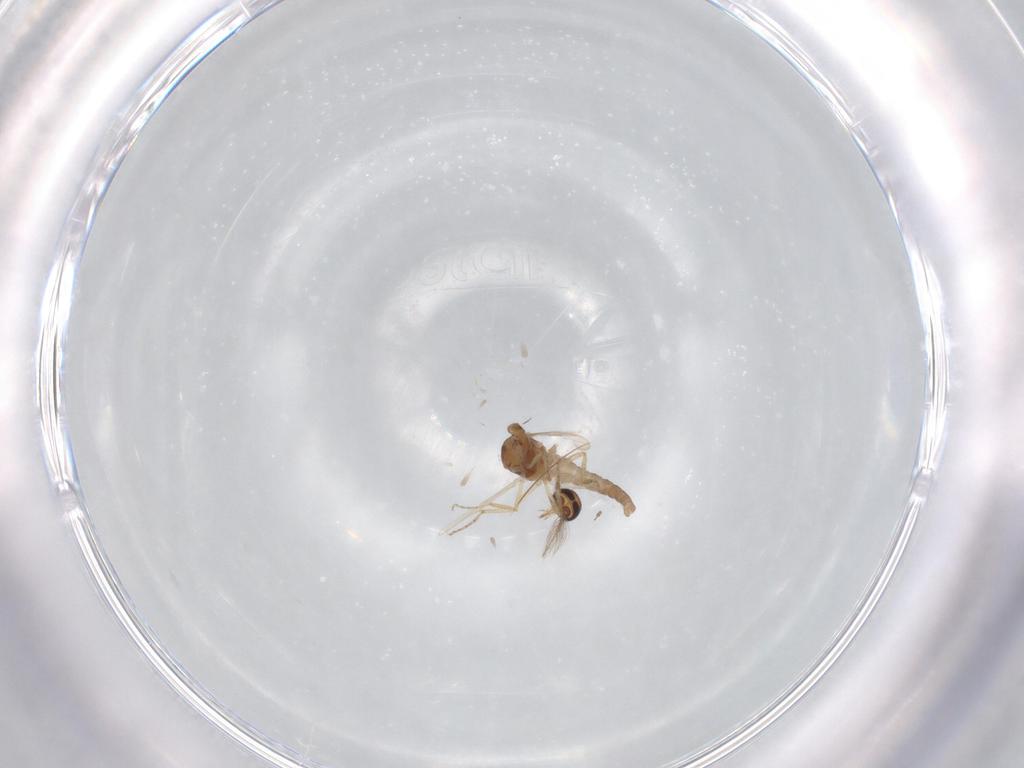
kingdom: Animalia
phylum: Arthropoda
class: Insecta
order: Diptera
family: Ceratopogonidae
